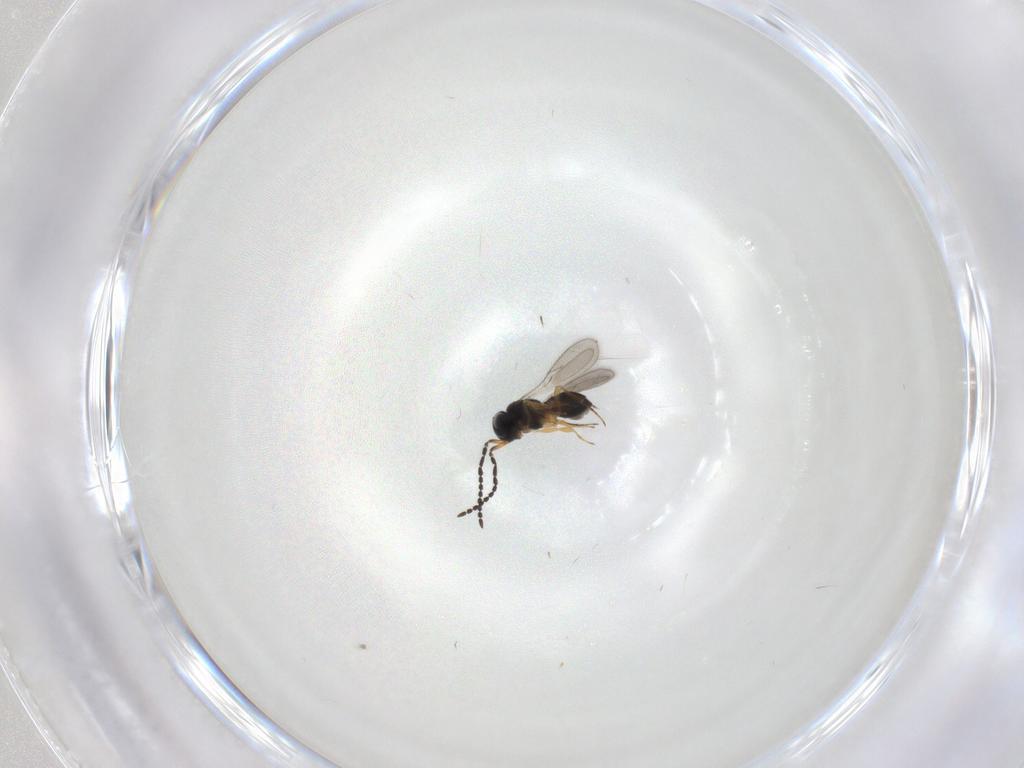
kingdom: Animalia
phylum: Arthropoda
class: Insecta
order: Hymenoptera
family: Scelionidae
